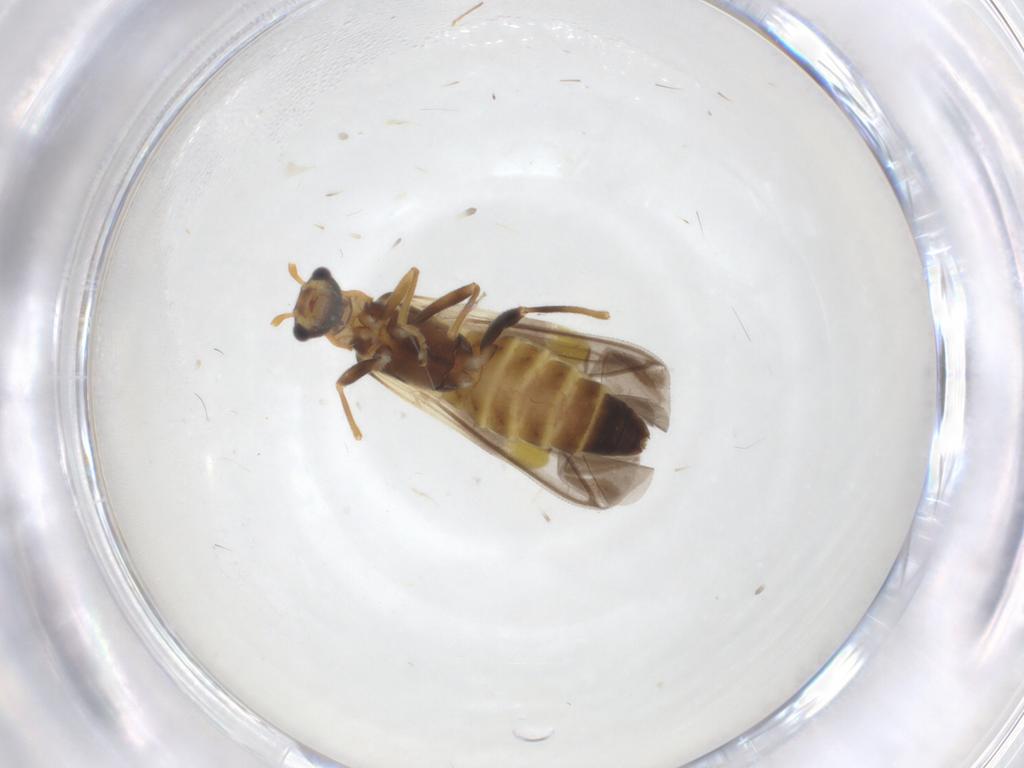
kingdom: Animalia
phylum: Arthropoda
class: Insecta
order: Coleoptera
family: Cantharidae
